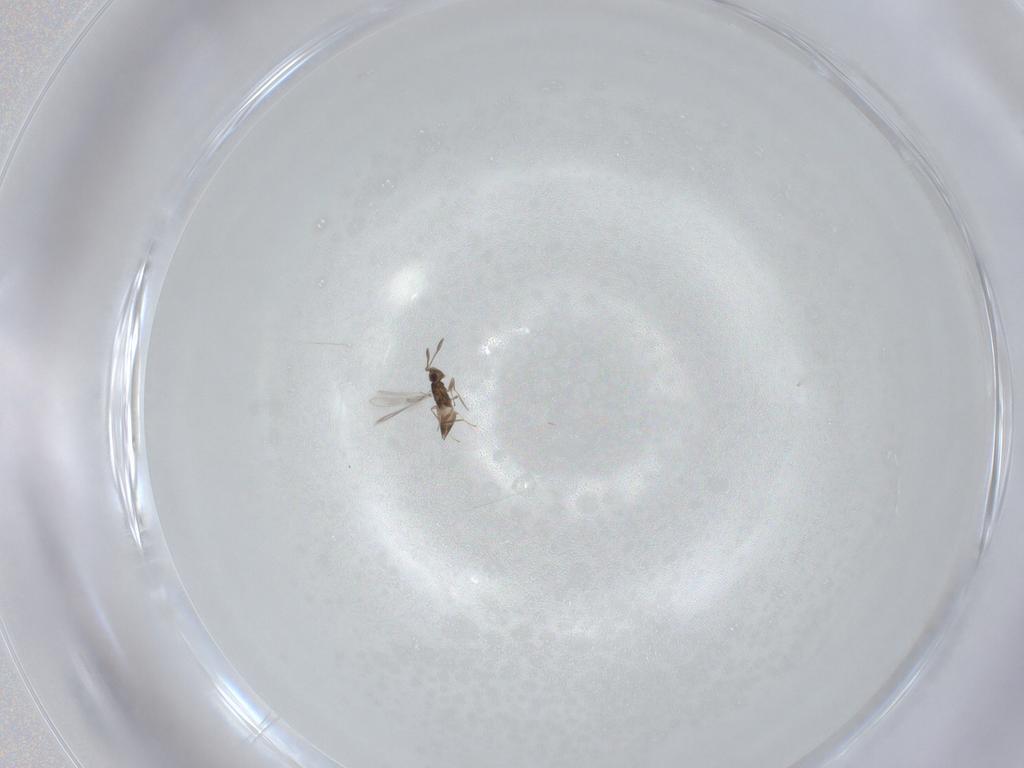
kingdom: Animalia
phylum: Arthropoda
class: Insecta
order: Hymenoptera
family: Mymaridae
